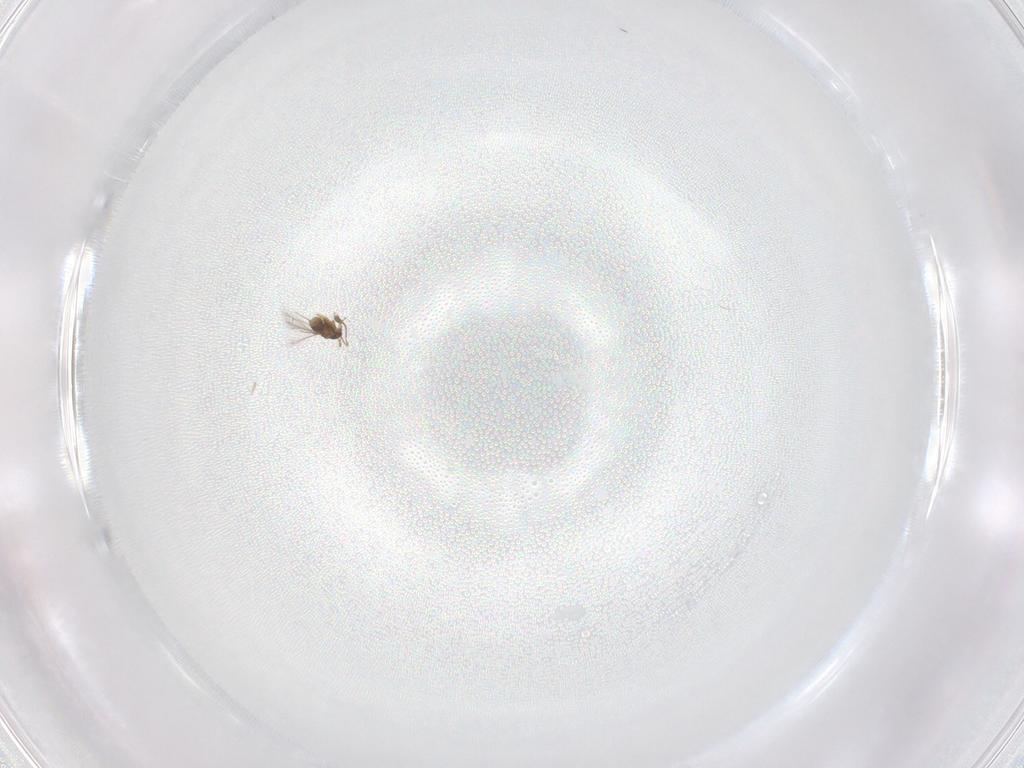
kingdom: Animalia
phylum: Arthropoda
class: Insecta
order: Hymenoptera
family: Mymaridae
